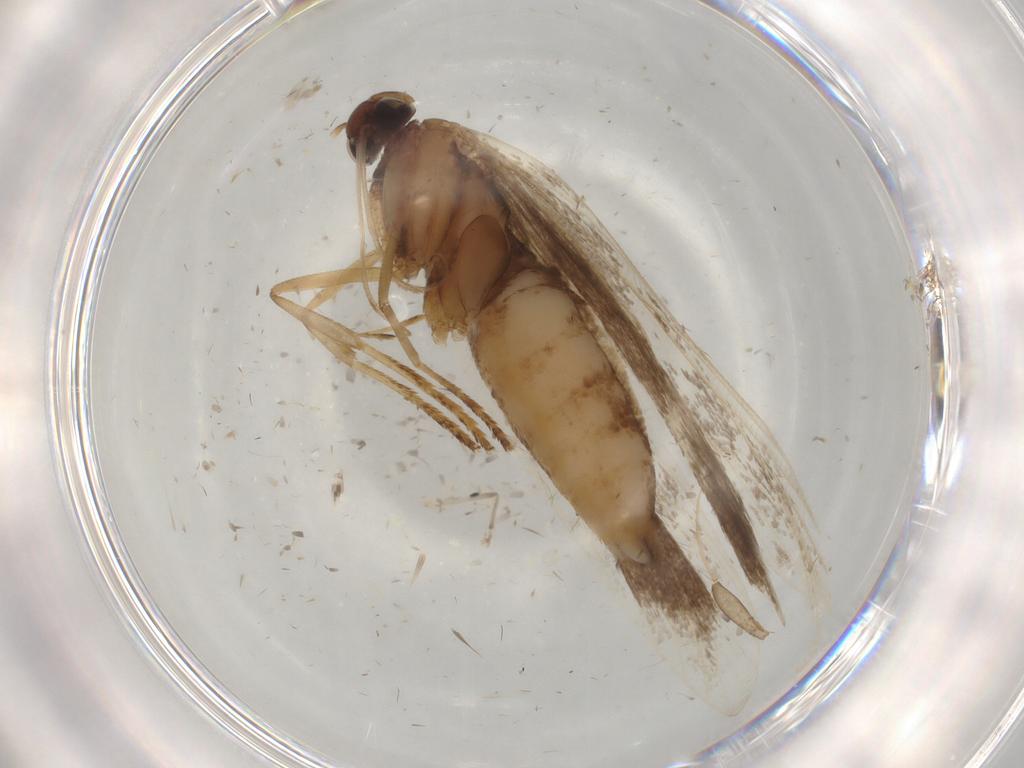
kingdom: Animalia
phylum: Arthropoda
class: Insecta
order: Lepidoptera
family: Gelechiidae
